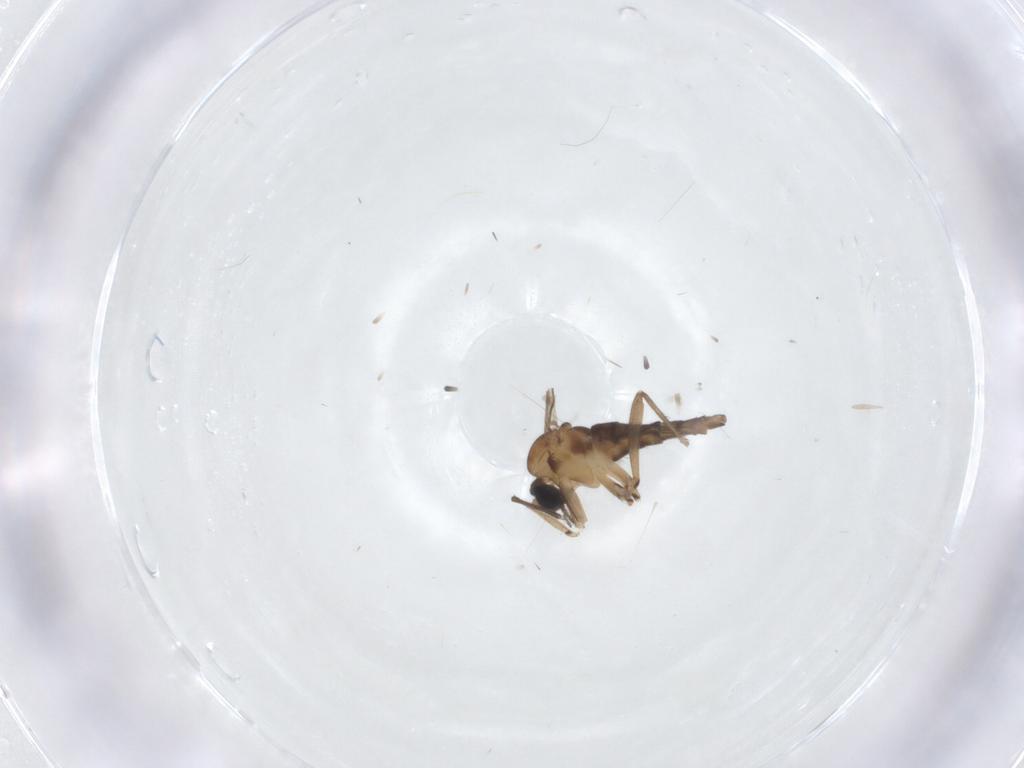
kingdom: Animalia
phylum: Arthropoda
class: Insecta
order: Diptera
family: Sciaridae
